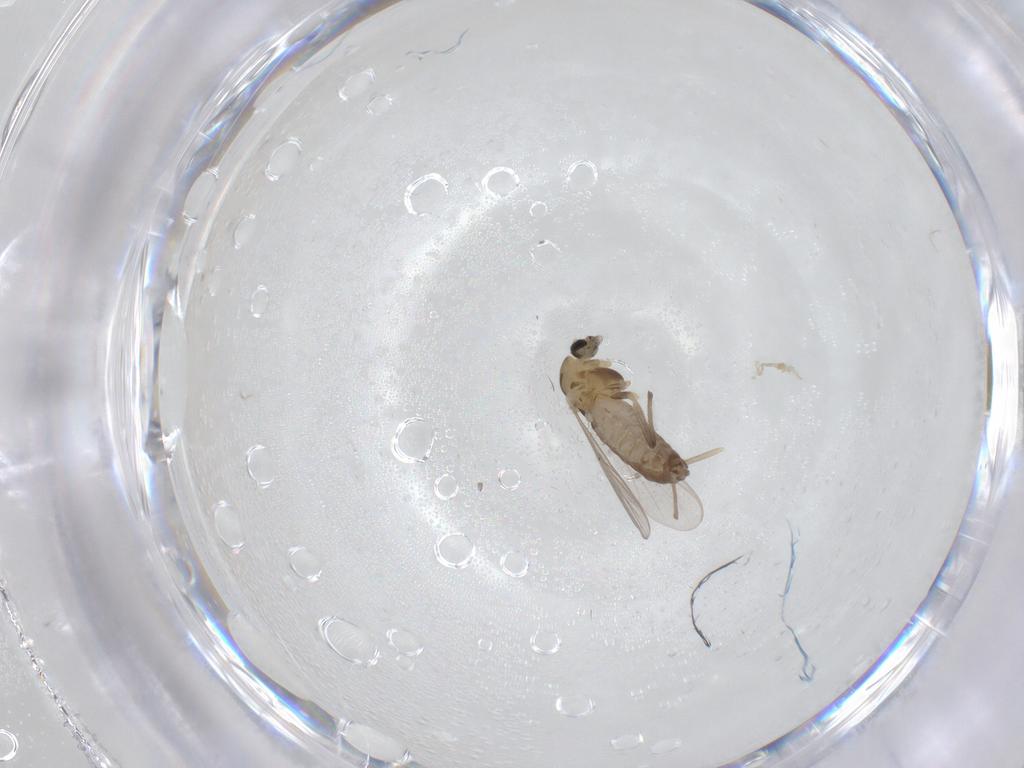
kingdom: Animalia
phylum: Arthropoda
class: Insecta
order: Diptera
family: Chironomidae
